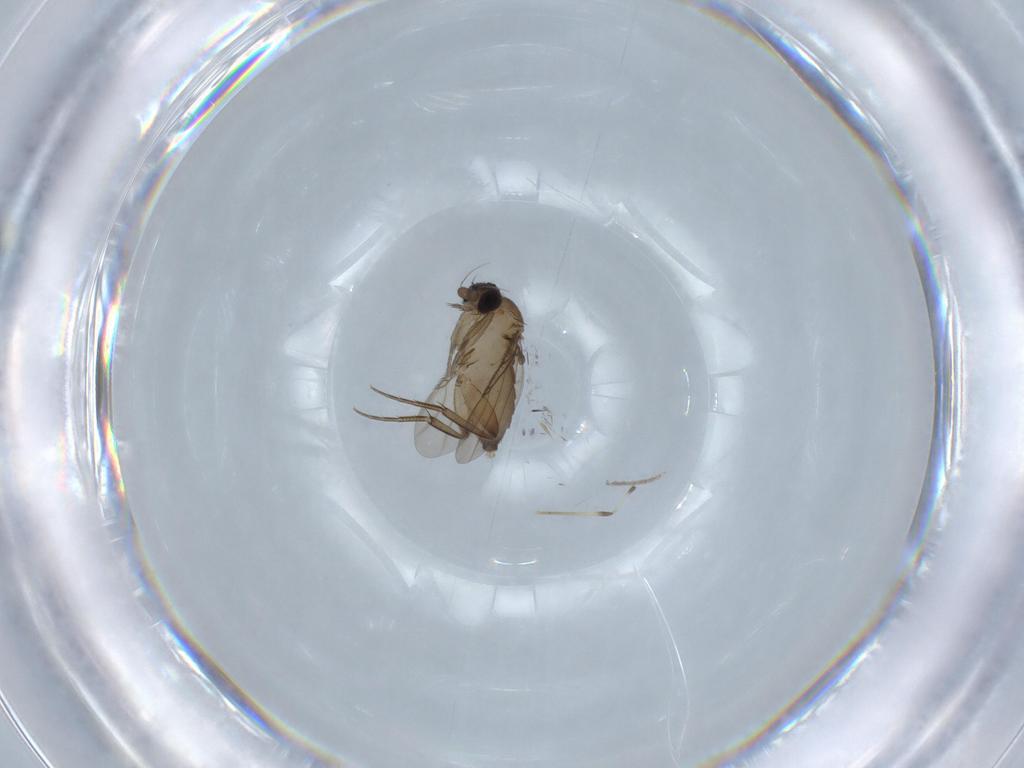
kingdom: Animalia
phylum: Arthropoda
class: Insecta
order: Diptera
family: Phoridae
